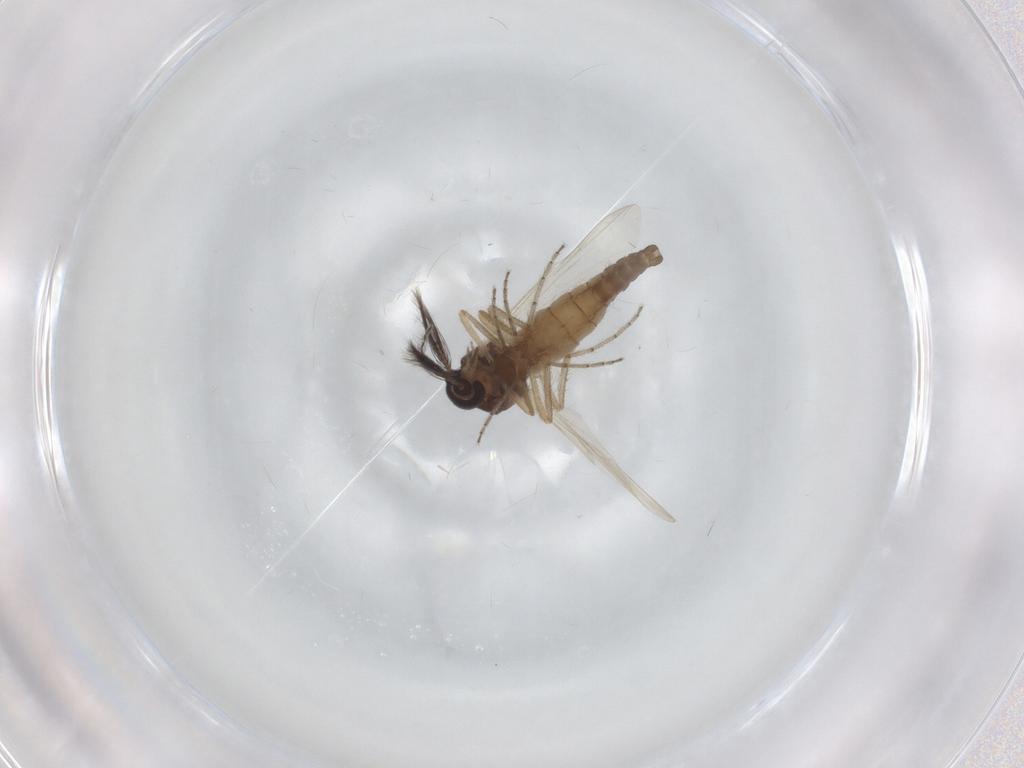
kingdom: Animalia
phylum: Arthropoda
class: Insecta
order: Diptera
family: Ceratopogonidae
